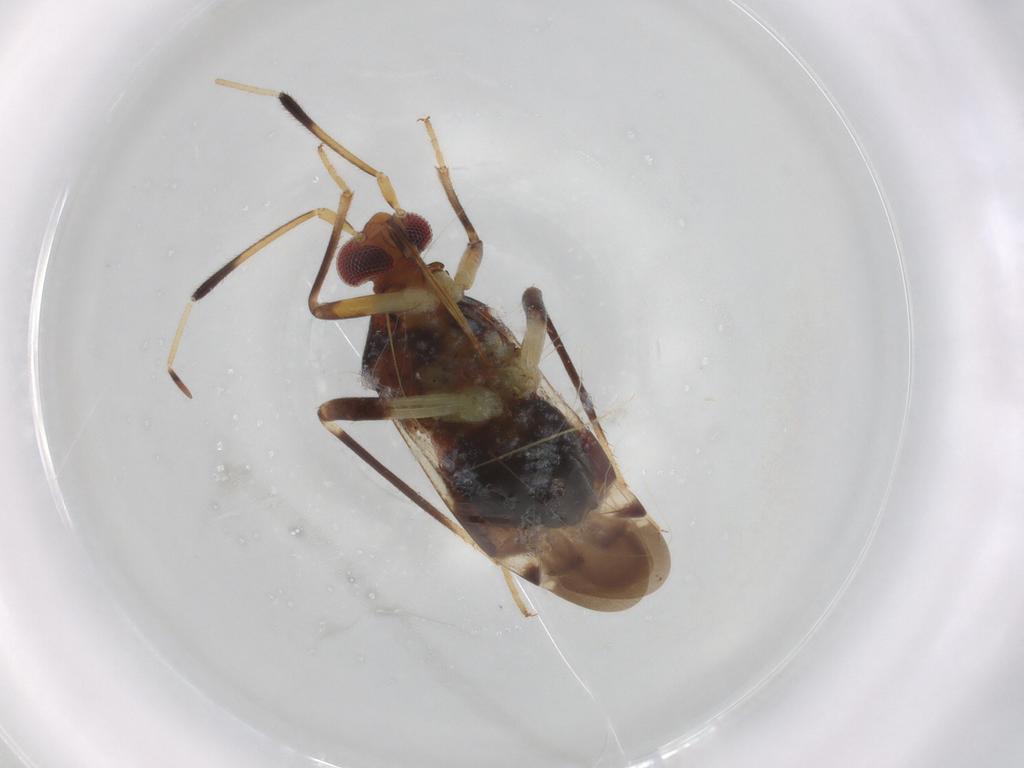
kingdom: Animalia
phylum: Arthropoda
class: Insecta
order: Hemiptera
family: Miridae
